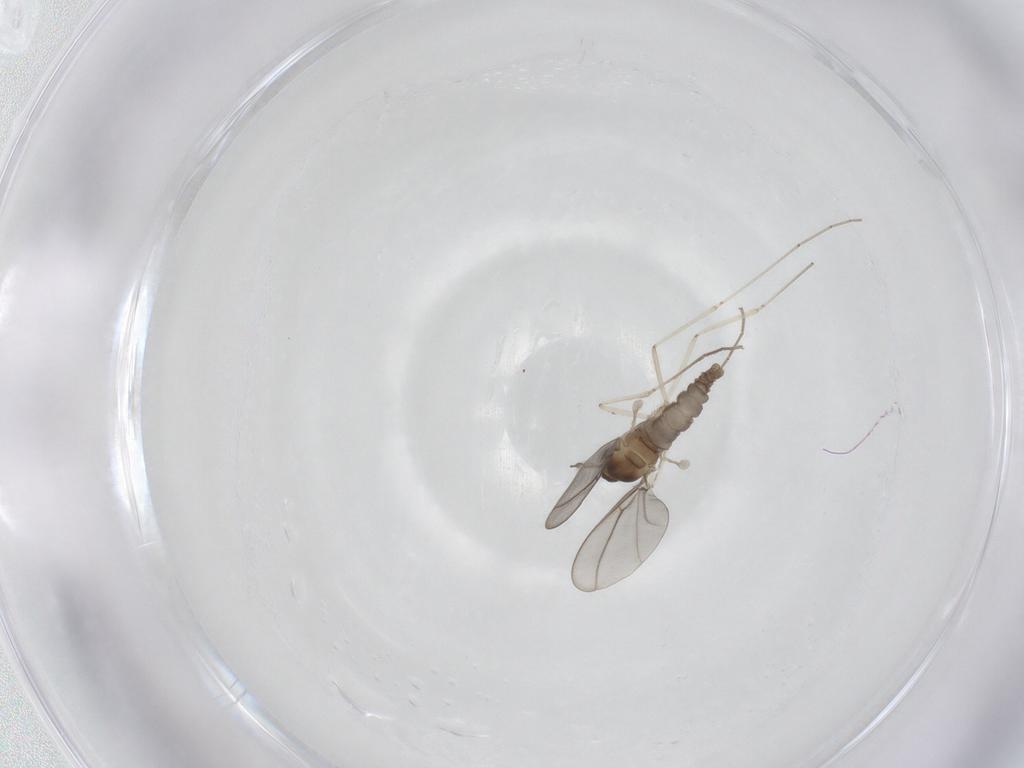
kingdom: Animalia
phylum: Arthropoda
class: Insecta
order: Diptera
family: Cecidomyiidae
